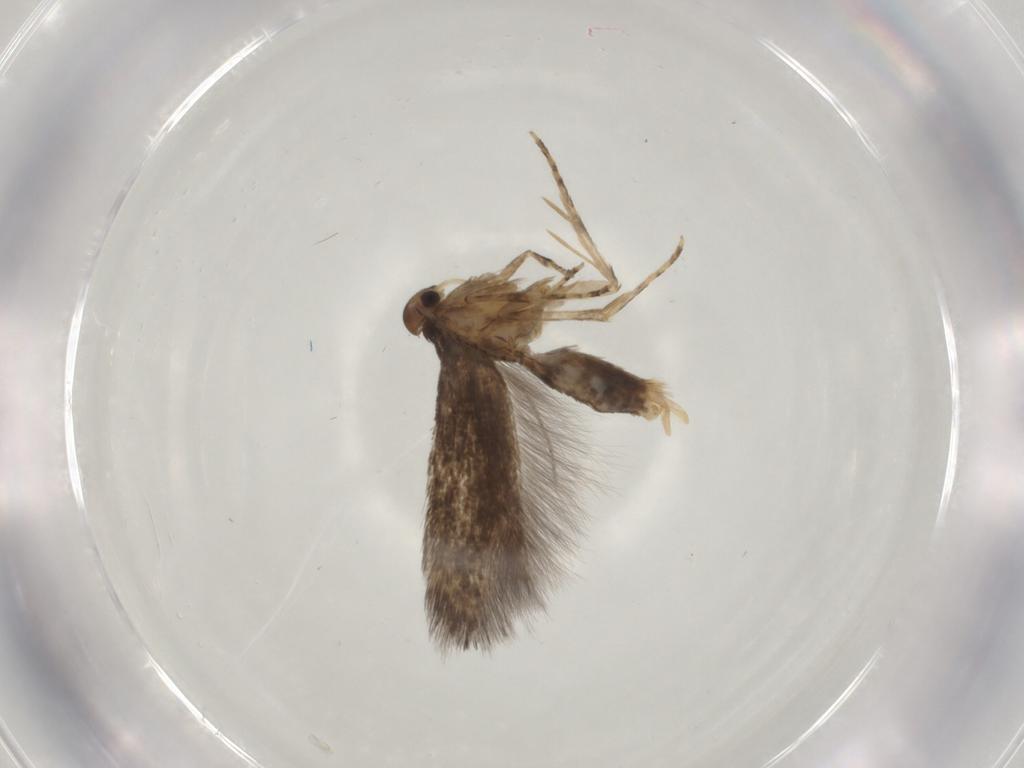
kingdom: Animalia
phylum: Arthropoda
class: Insecta
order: Lepidoptera
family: Elachistidae
